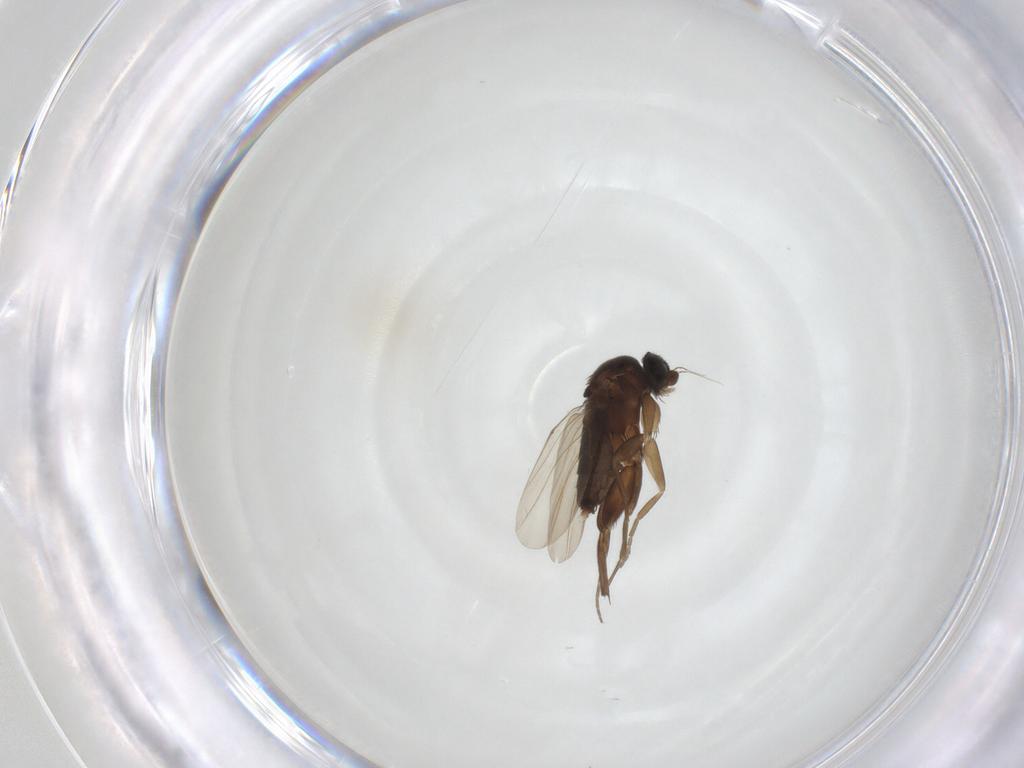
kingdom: Animalia
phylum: Arthropoda
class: Insecta
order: Diptera
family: Phoridae
